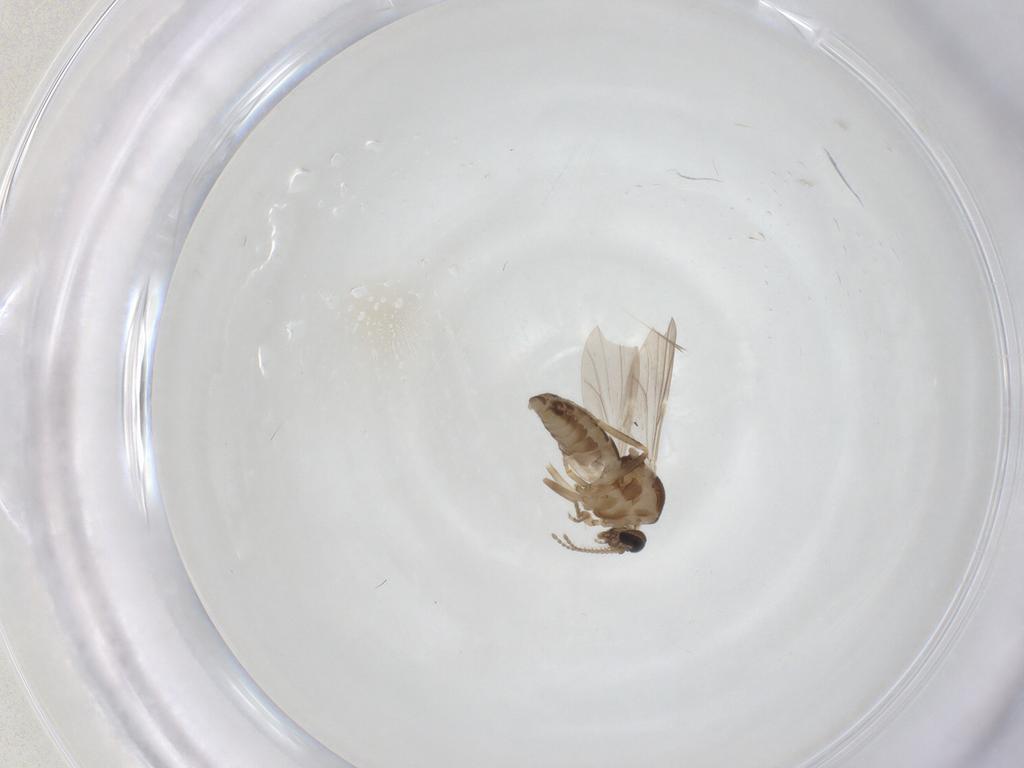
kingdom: Animalia
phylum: Arthropoda
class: Insecta
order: Diptera
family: Ceratopogonidae
